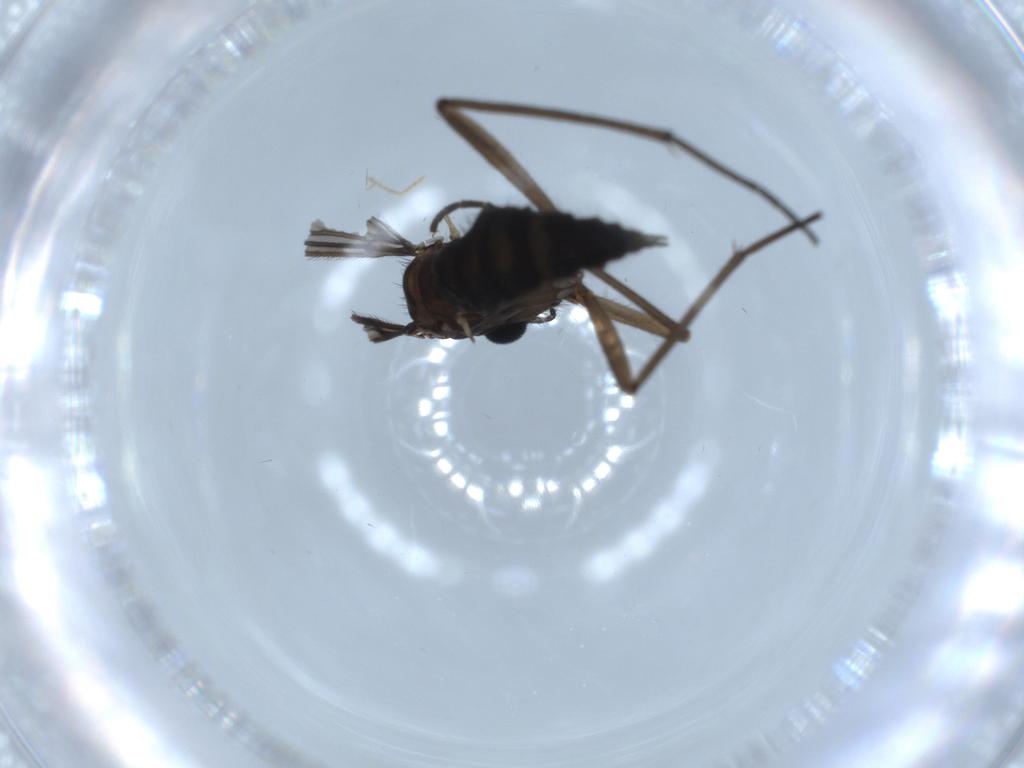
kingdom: Animalia
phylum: Arthropoda
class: Insecta
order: Diptera
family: Sciaridae
